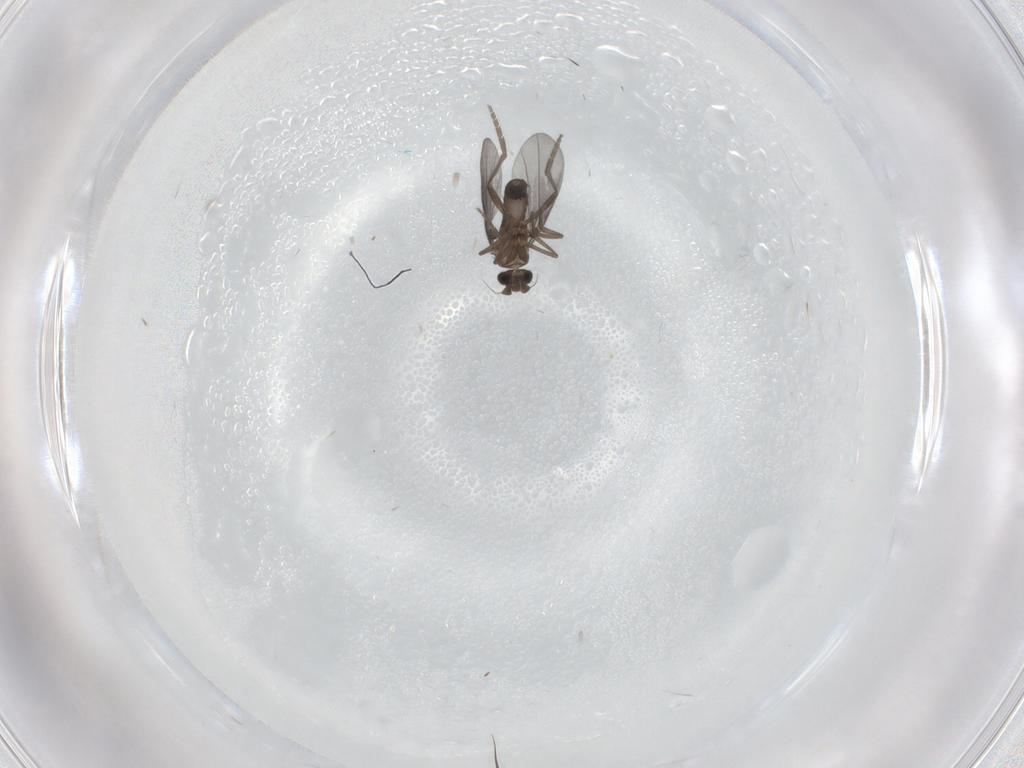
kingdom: Animalia
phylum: Arthropoda
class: Insecta
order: Diptera
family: Phoridae
